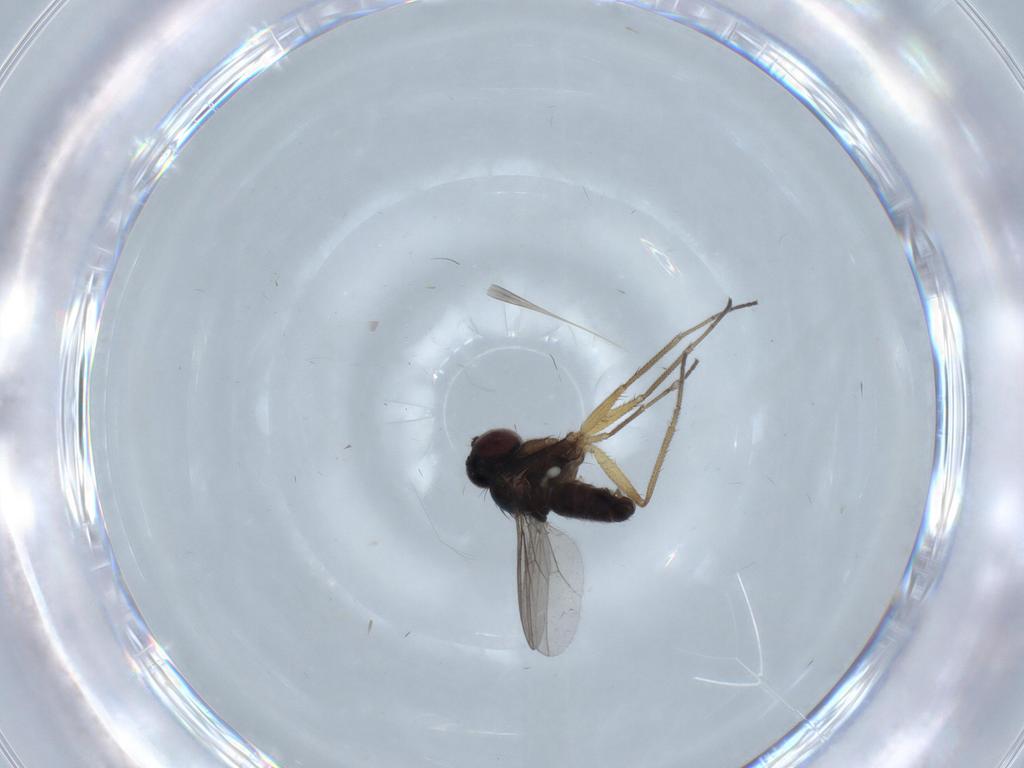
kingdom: Animalia
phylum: Arthropoda
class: Insecta
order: Diptera
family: Dolichopodidae
